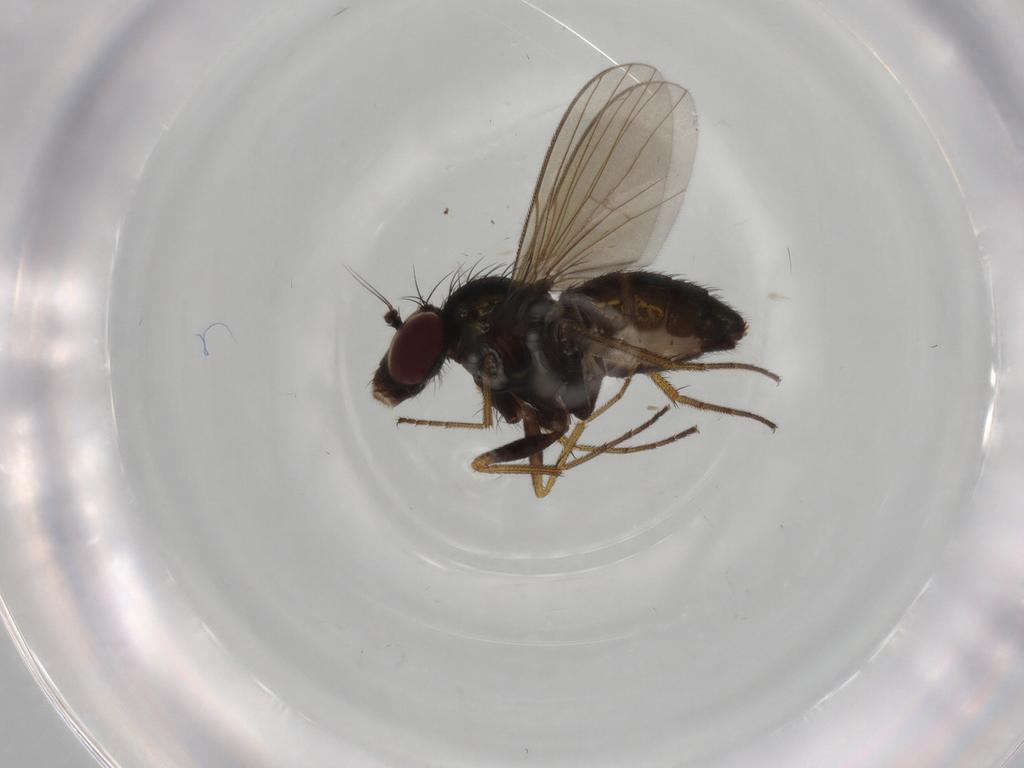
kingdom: Animalia
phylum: Arthropoda
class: Insecta
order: Diptera
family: Dolichopodidae
